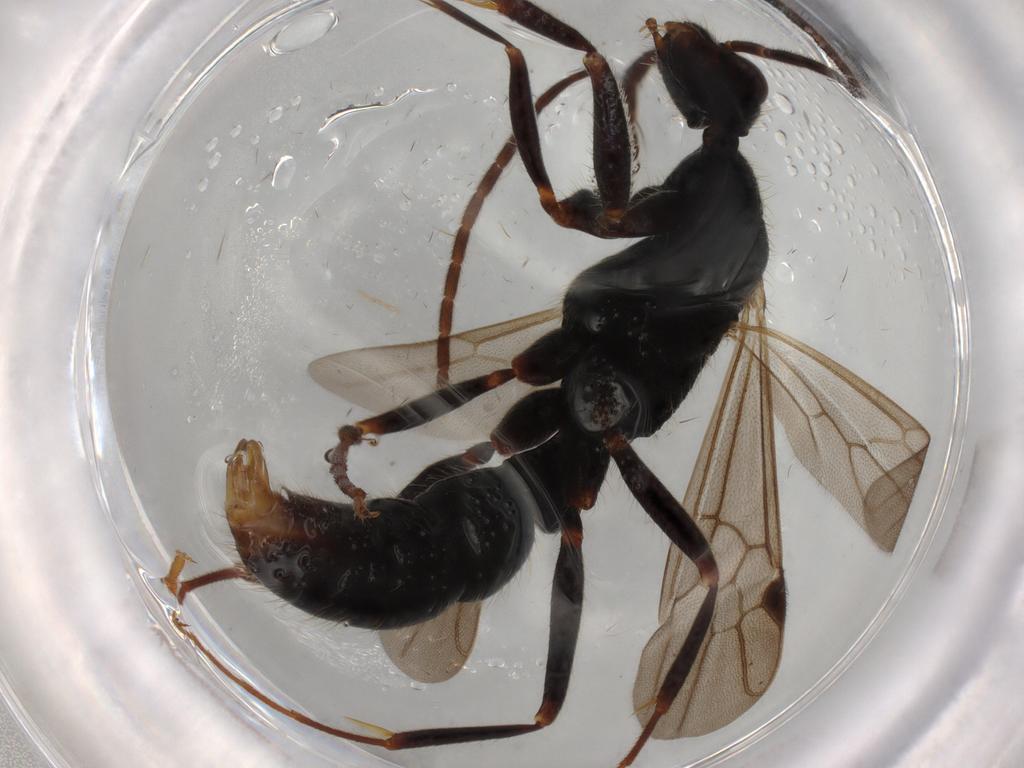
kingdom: Animalia
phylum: Arthropoda
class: Insecta
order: Hymenoptera
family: Formicidae
